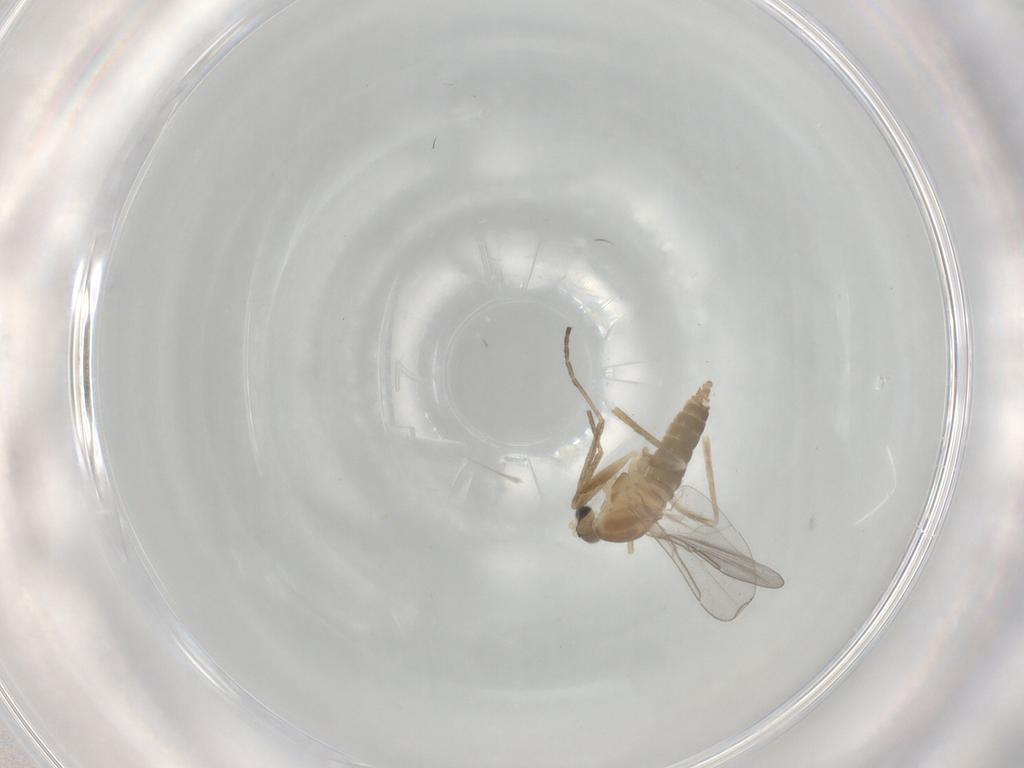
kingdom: Animalia
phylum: Arthropoda
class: Insecta
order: Diptera
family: Cecidomyiidae
